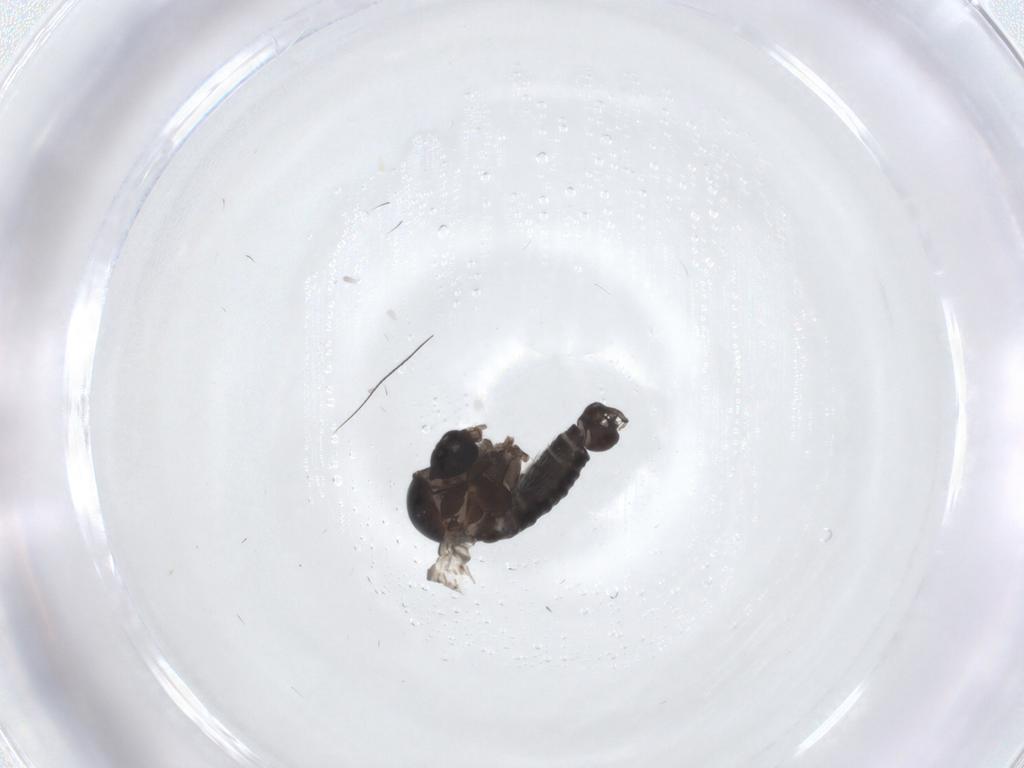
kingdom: Animalia
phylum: Arthropoda
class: Insecta
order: Diptera
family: Psychodidae
